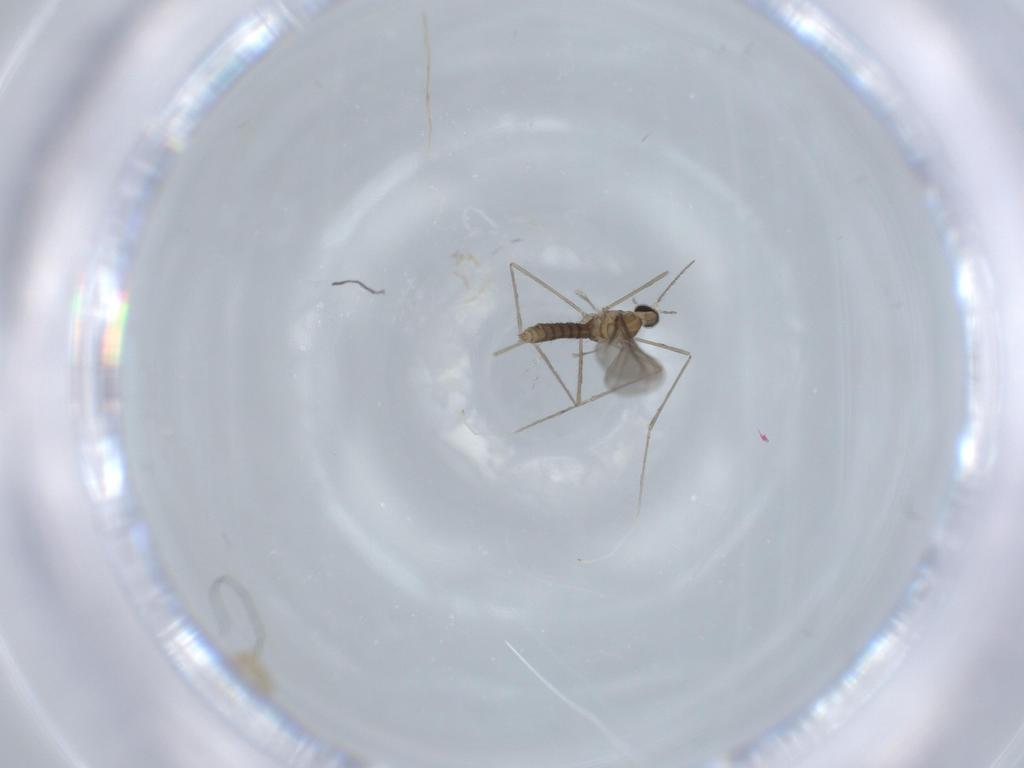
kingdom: Animalia
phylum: Arthropoda
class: Insecta
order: Diptera
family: Cecidomyiidae
